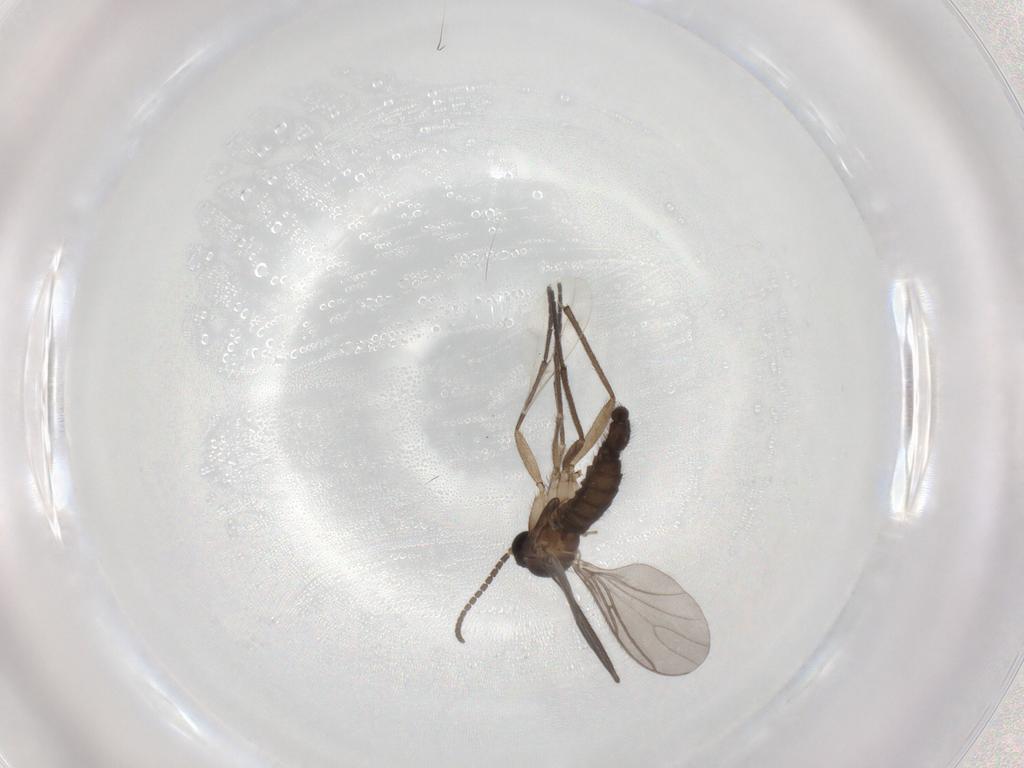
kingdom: Animalia
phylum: Arthropoda
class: Insecta
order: Diptera
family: Sciaridae
